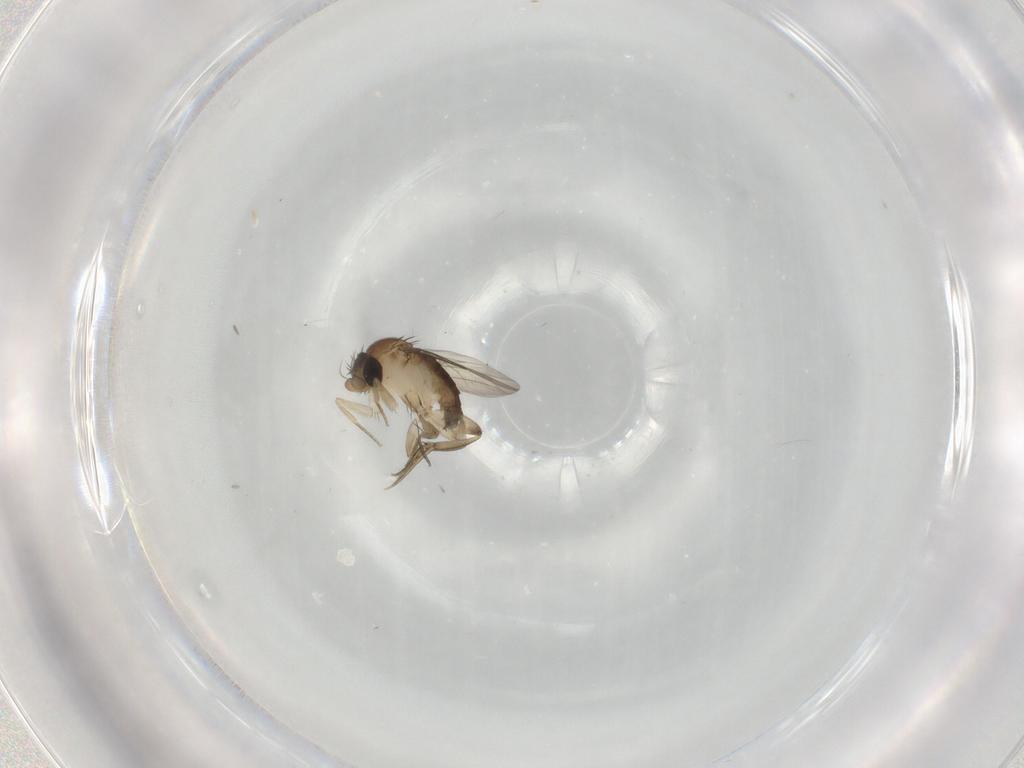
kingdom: Animalia
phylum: Arthropoda
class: Insecta
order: Diptera
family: Phoridae
